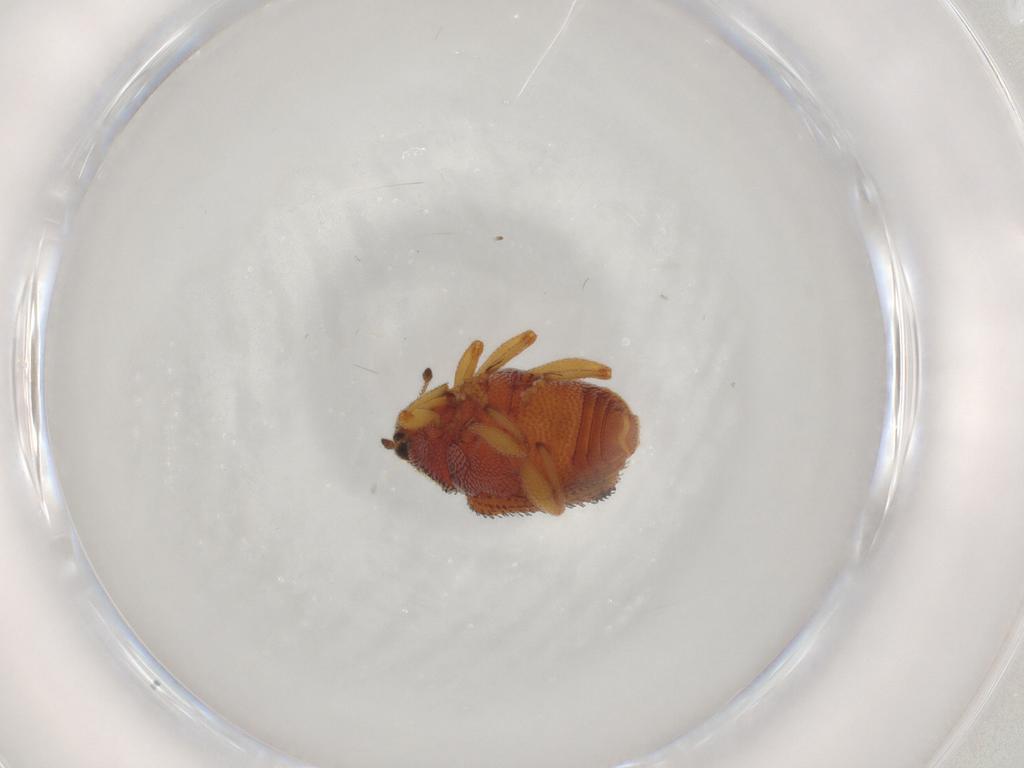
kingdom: Animalia
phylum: Arthropoda
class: Insecta
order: Coleoptera
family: Curculionidae
